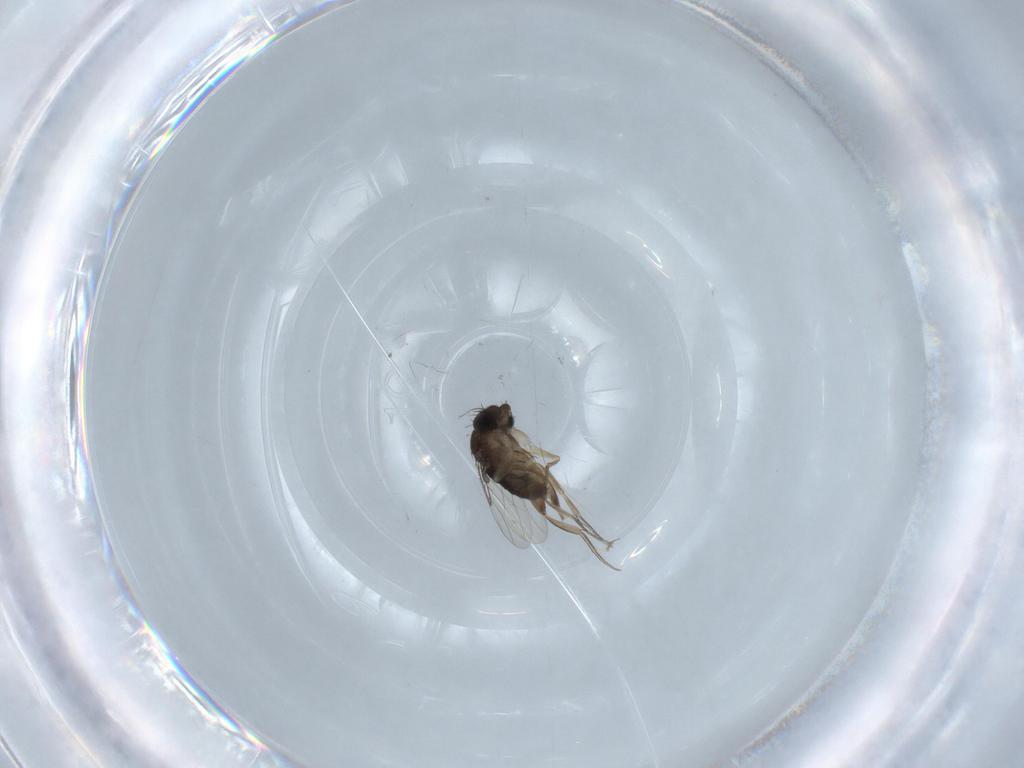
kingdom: Animalia
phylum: Arthropoda
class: Insecta
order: Diptera
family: Phoridae
